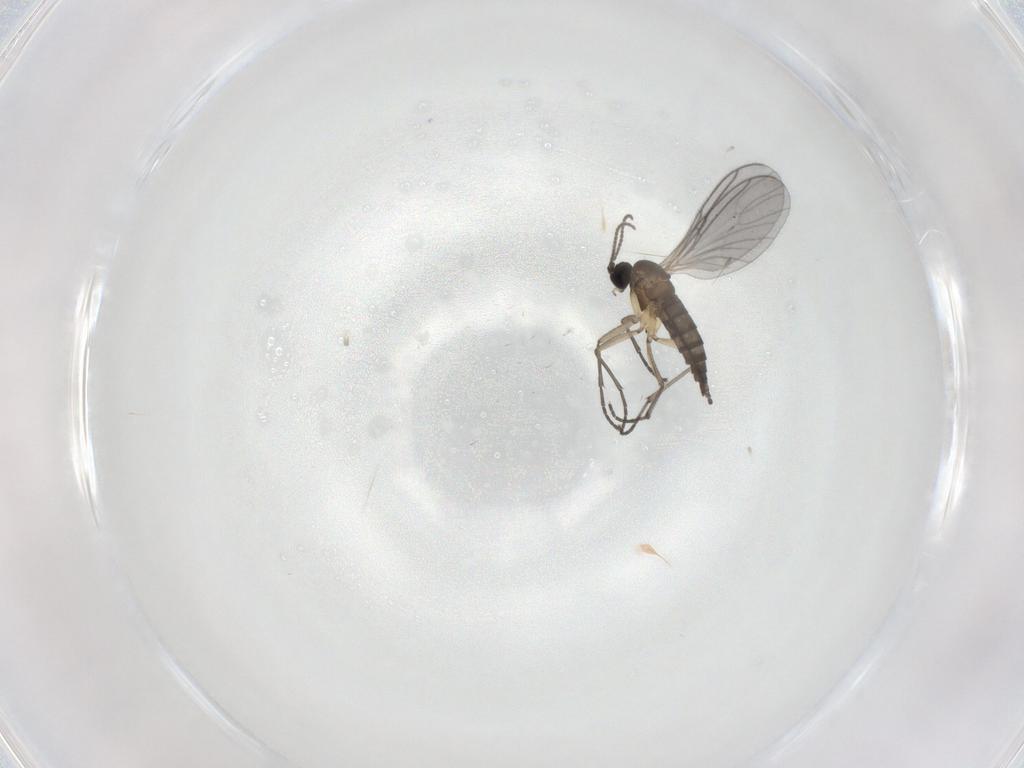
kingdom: Animalia
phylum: Arthropoda
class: Insecta
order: Diptera
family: Sciaridae
